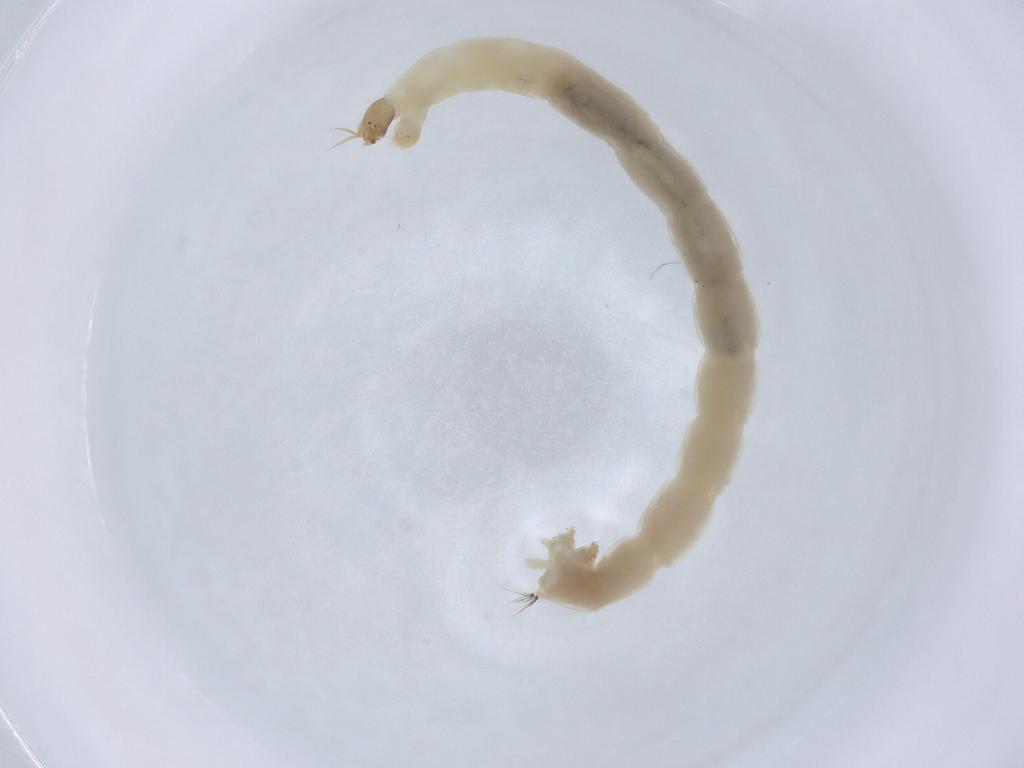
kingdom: Animalia
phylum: Arthropoda
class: Insecta
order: Diptera
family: Chironomidae
